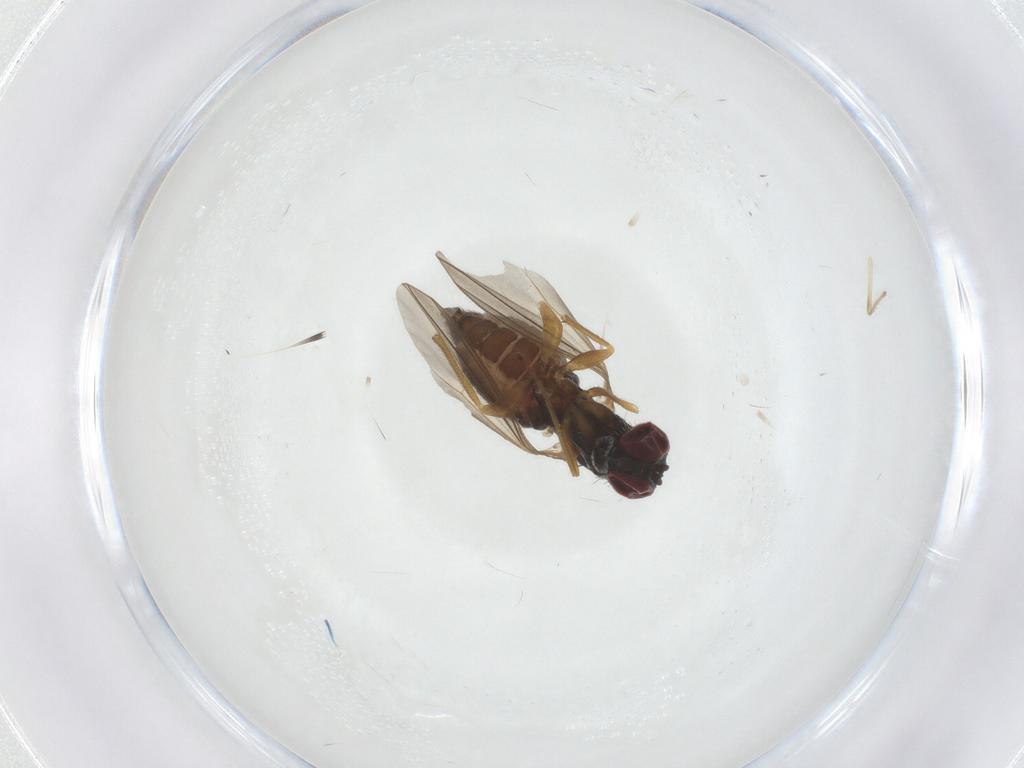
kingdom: Animalia
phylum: Arthropoda
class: Insecta
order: Diptera
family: Dolichopodidae
